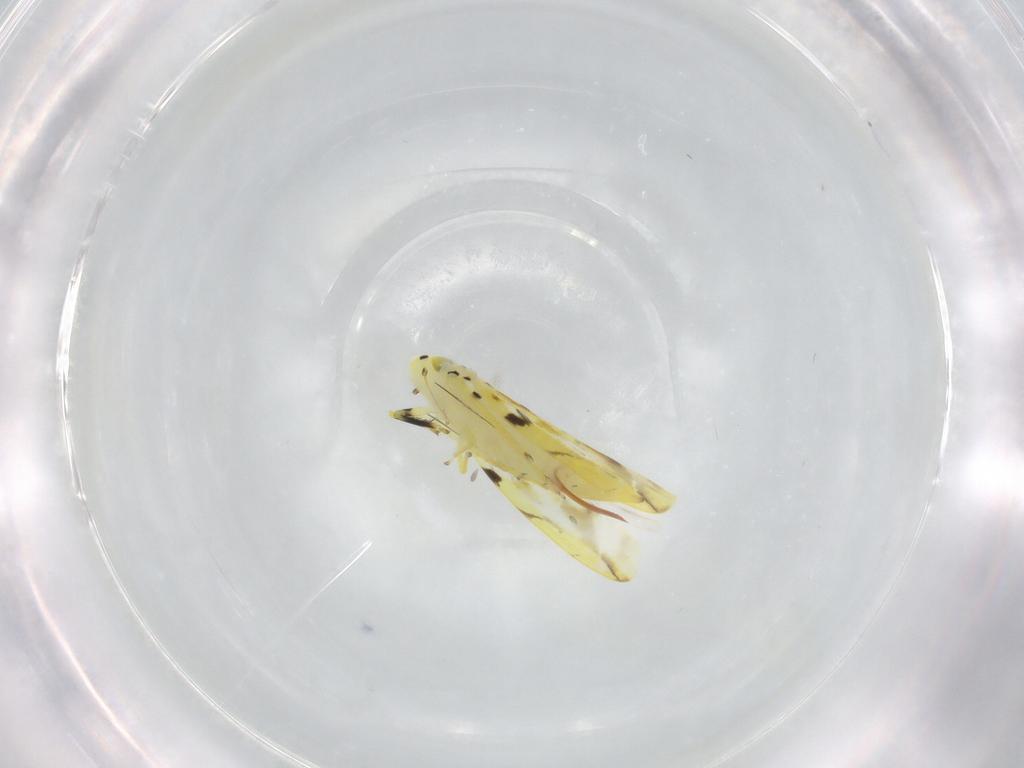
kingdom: Animalia
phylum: Arthropoda
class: Insecta
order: Hemiptera
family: Cicadellidae
